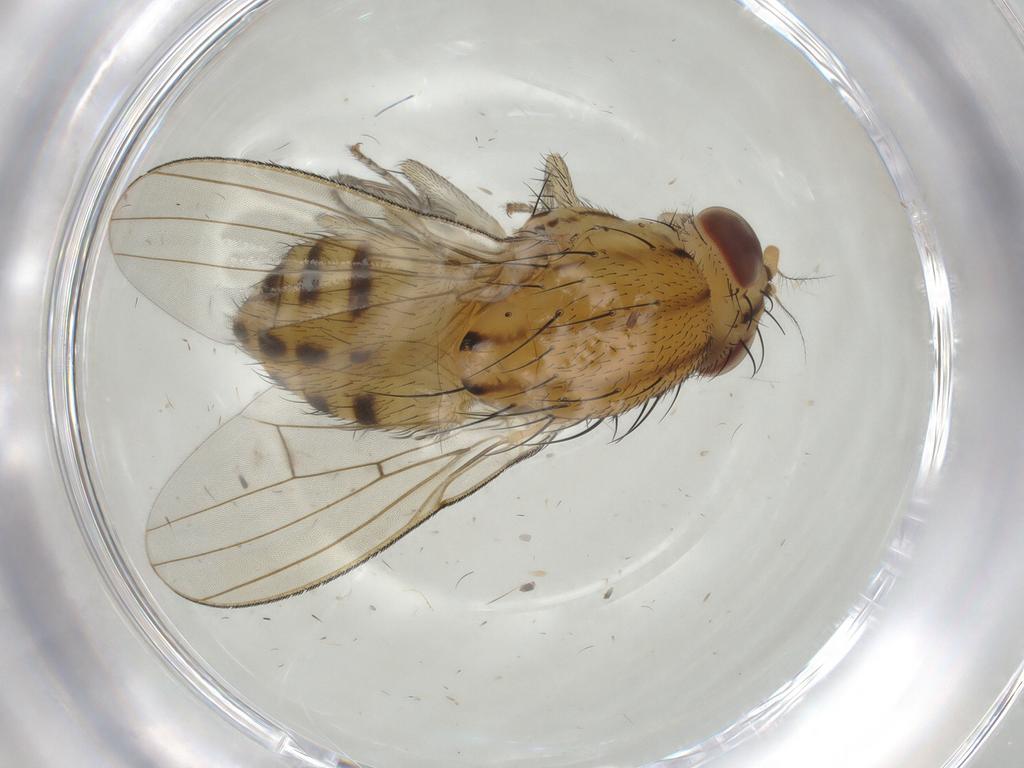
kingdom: Animalia
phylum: Arthropoda
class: Insecta
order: Diptera
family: Lauxaniidae
